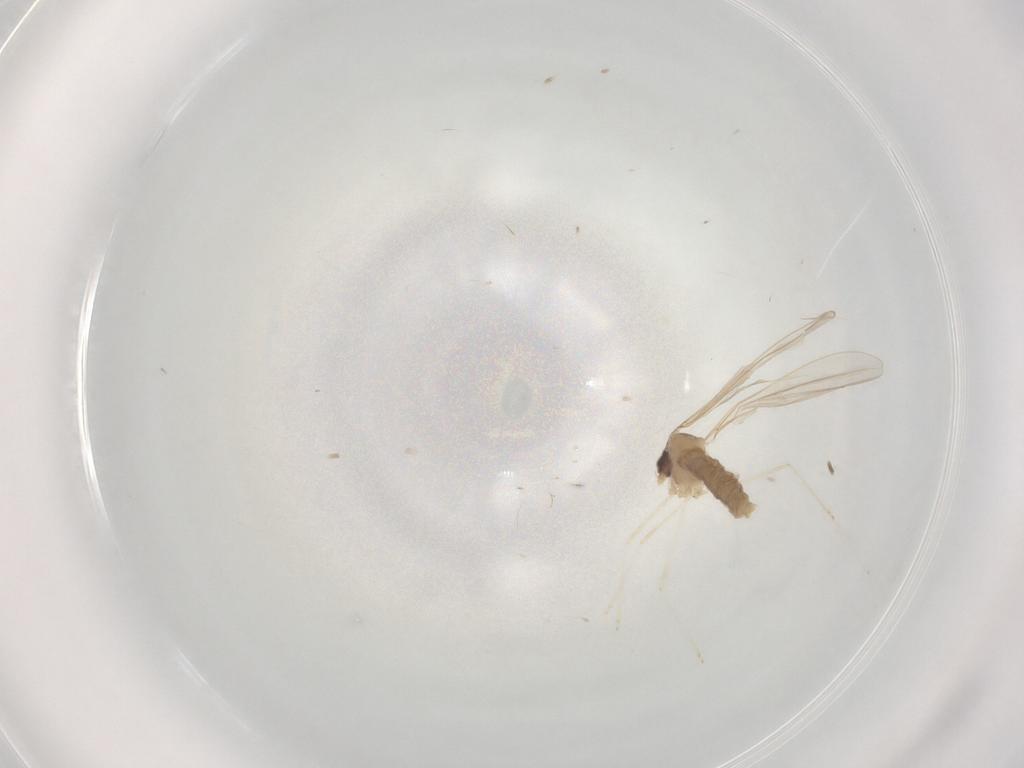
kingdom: Animalia
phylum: Arthropoda
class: Insecta
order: Diptera
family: Cecidomyiidae
